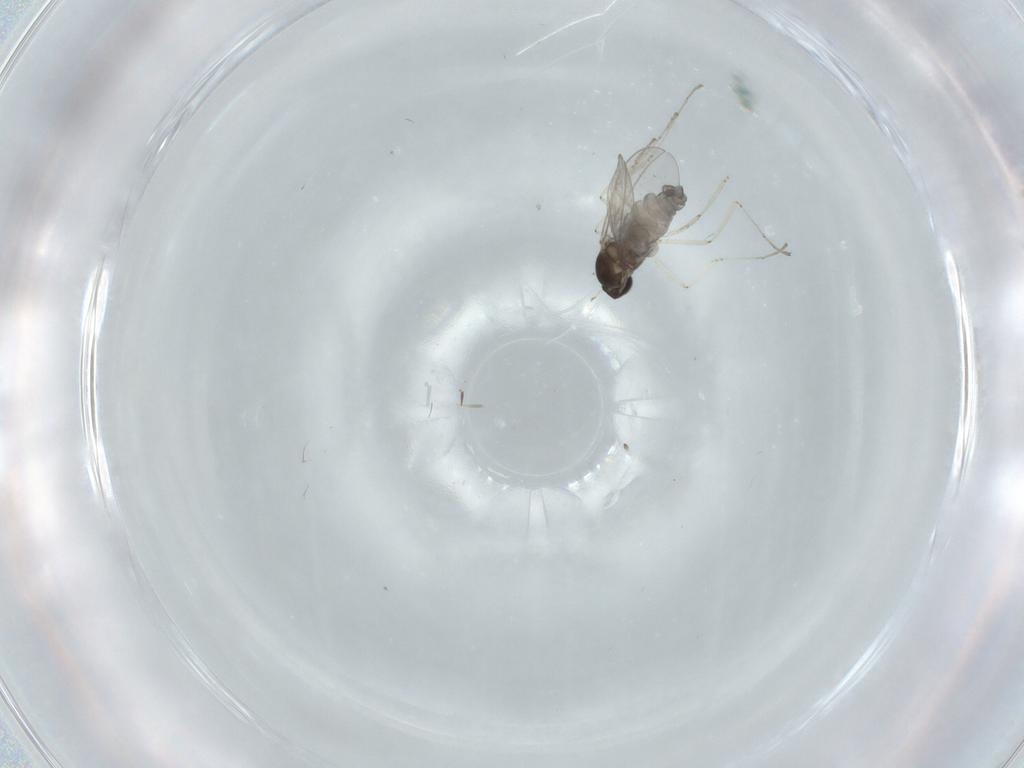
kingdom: Animalia
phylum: Arthropoda
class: Insecta
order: Diptera
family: Cecidomyiidae
